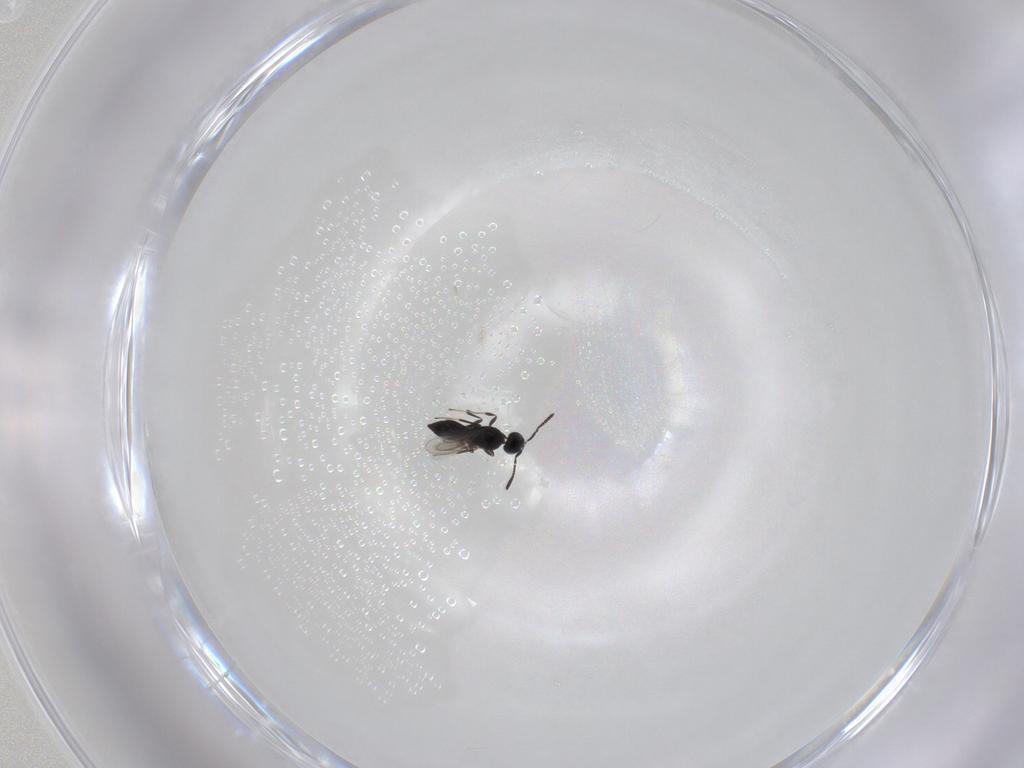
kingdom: Animalia
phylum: Arthropoda
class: Insecta
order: Hymenoptera
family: Scelionidae
